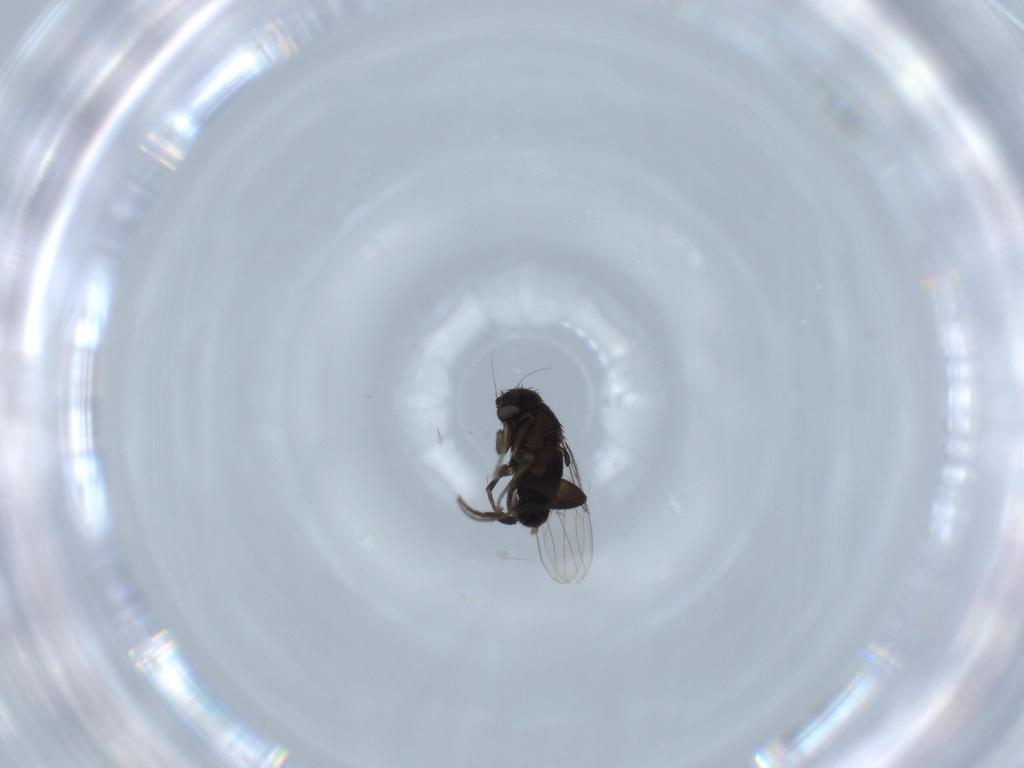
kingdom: Animalia
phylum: Arthropoda
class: Insecta
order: Diptera
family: Phoridae
